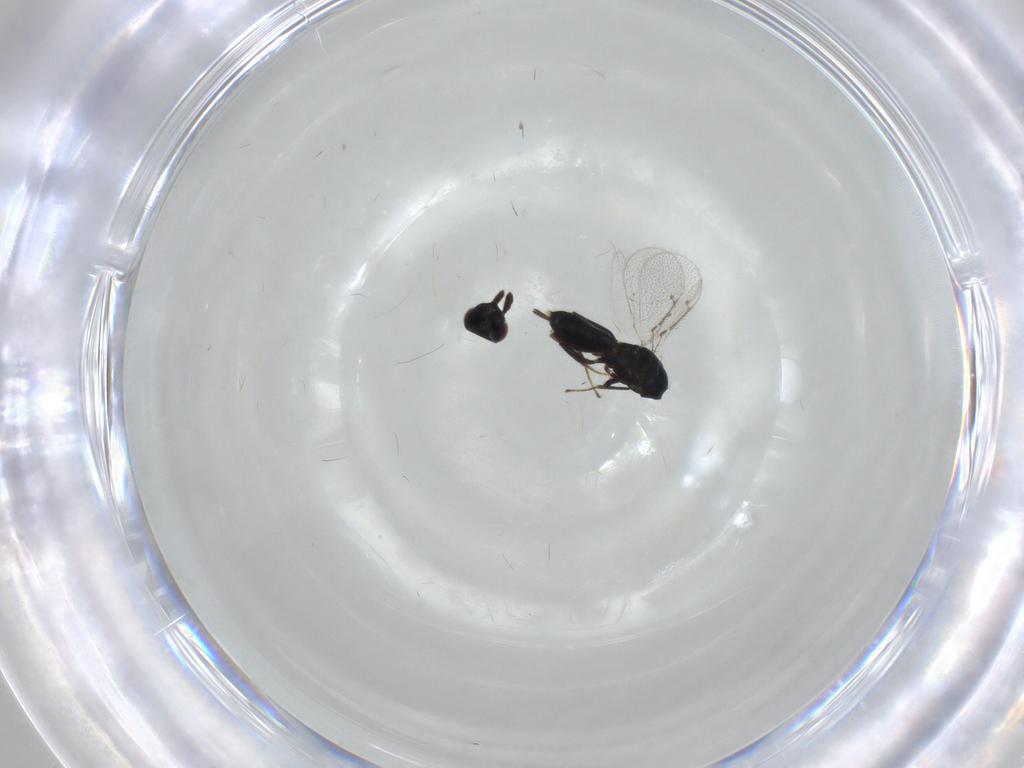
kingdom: Animalia
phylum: Arthropoda
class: Insecta
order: Hymenoptera
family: Pirenidae
